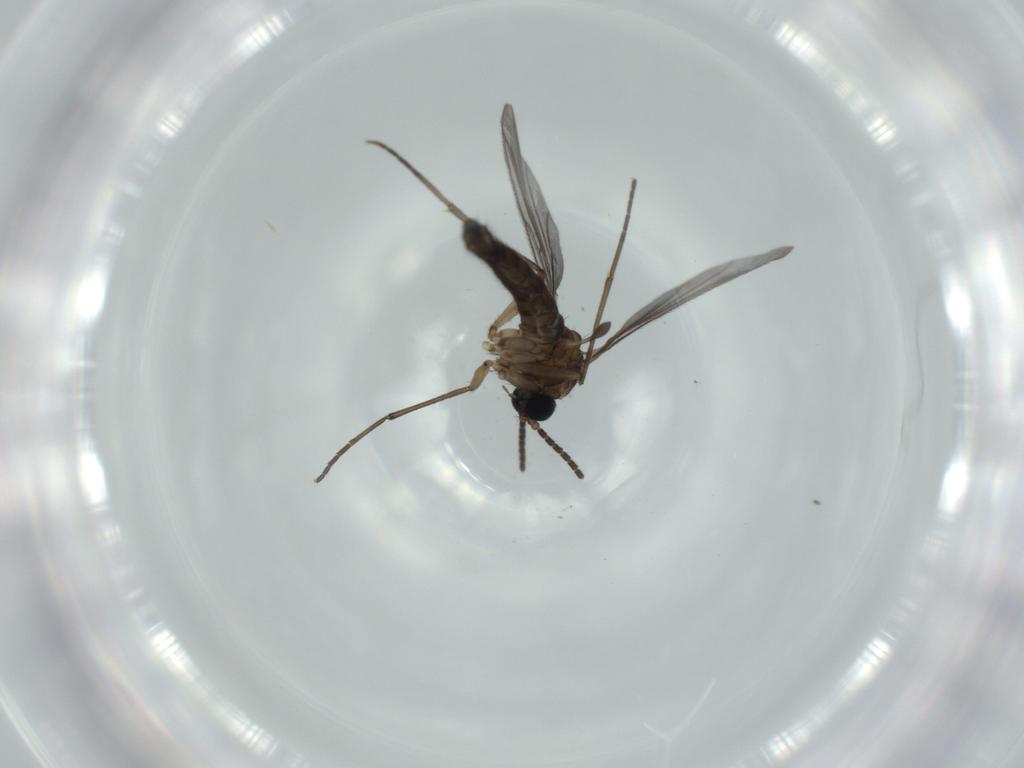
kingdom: Animalia
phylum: Arthropoda
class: Insecta
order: Diptera
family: Sciaridae
